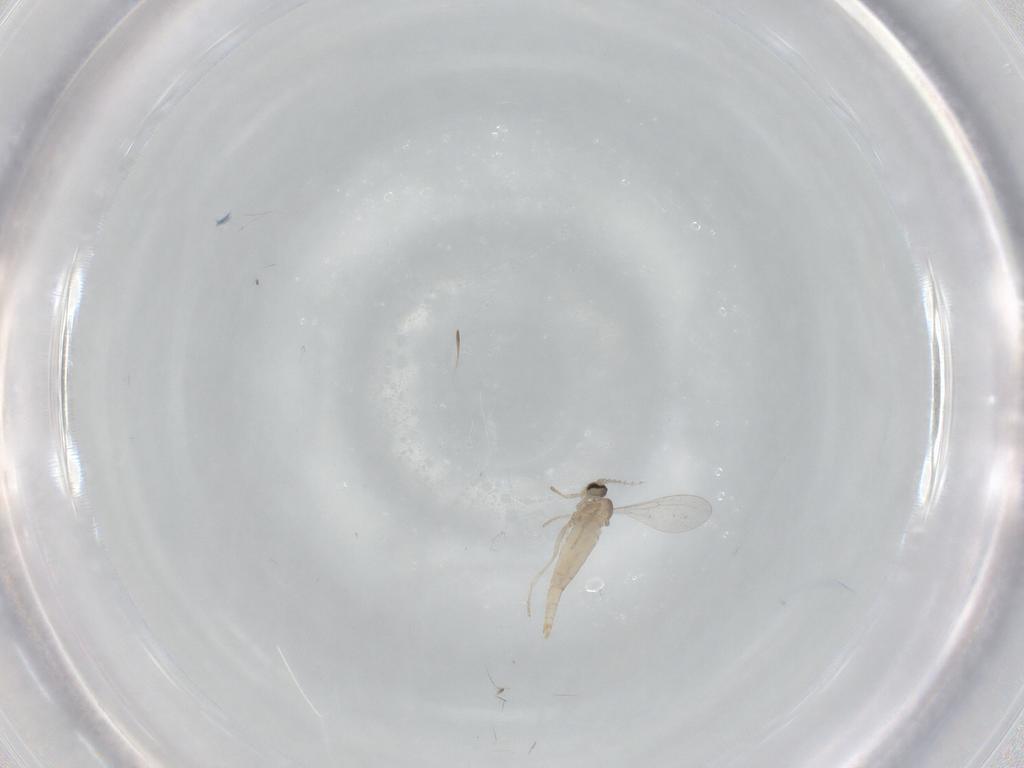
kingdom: Animalia
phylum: Arthropoda
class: Insecta
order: Diptera
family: Cecidomyiidae
